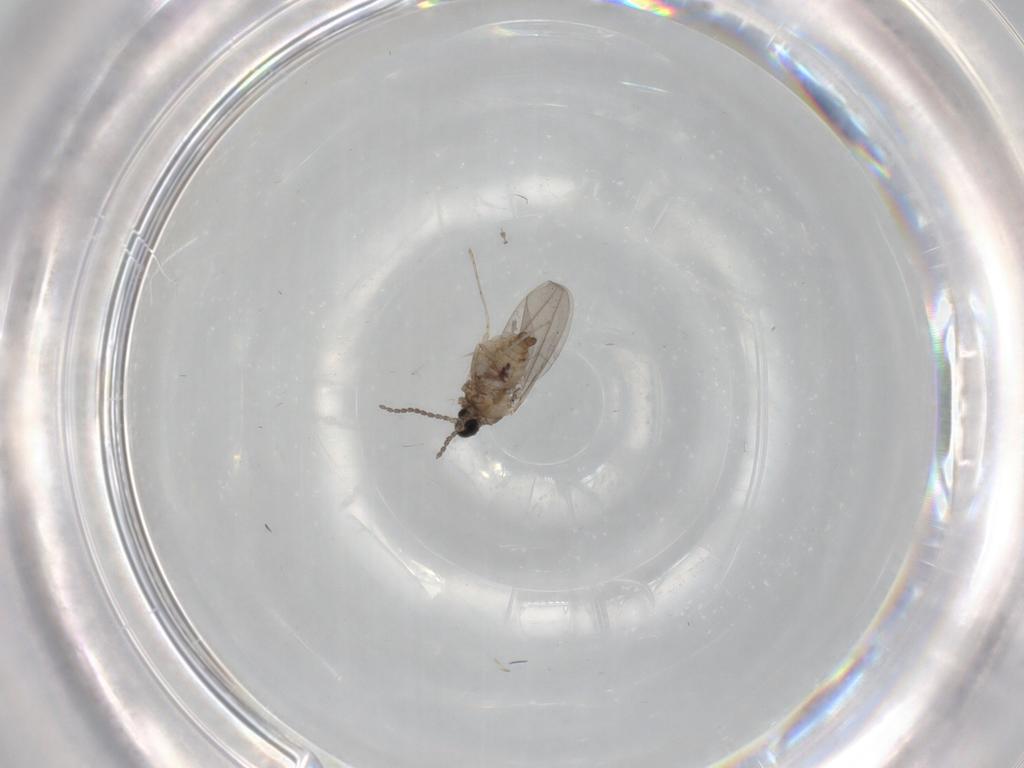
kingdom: Animalia
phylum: Arthropoda
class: Insecta
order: Diptera
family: Cecidomyiidae
